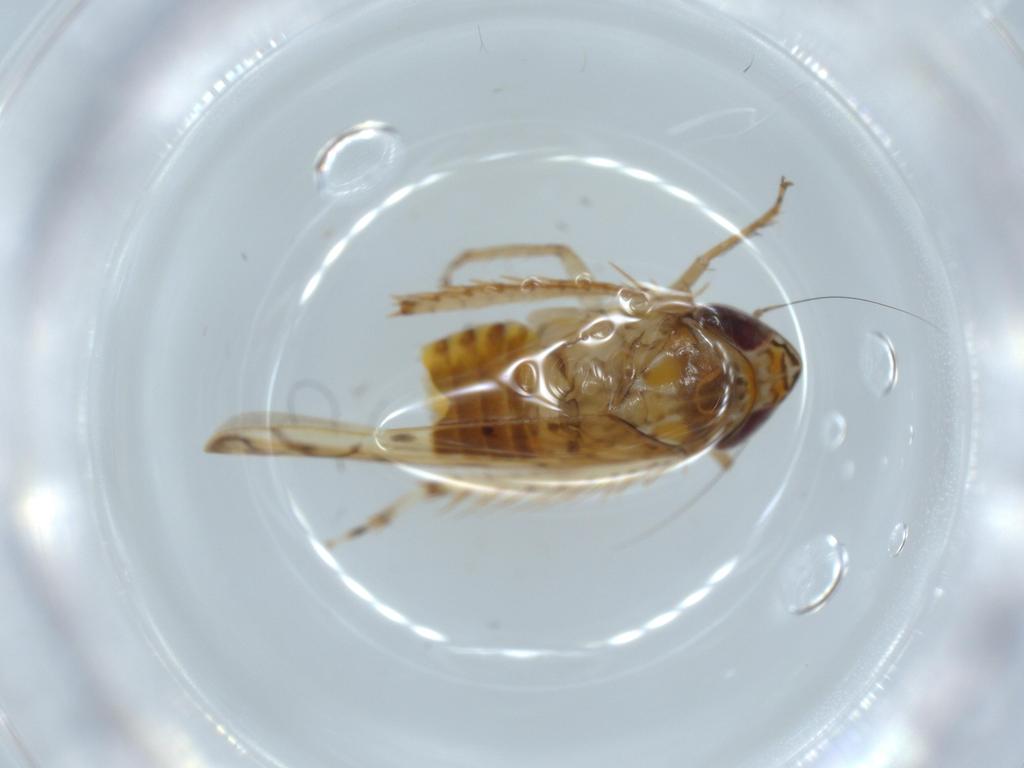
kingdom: Animalia
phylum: Arthropoda
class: Insecta
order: Hemiptera
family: Cicadellidae
